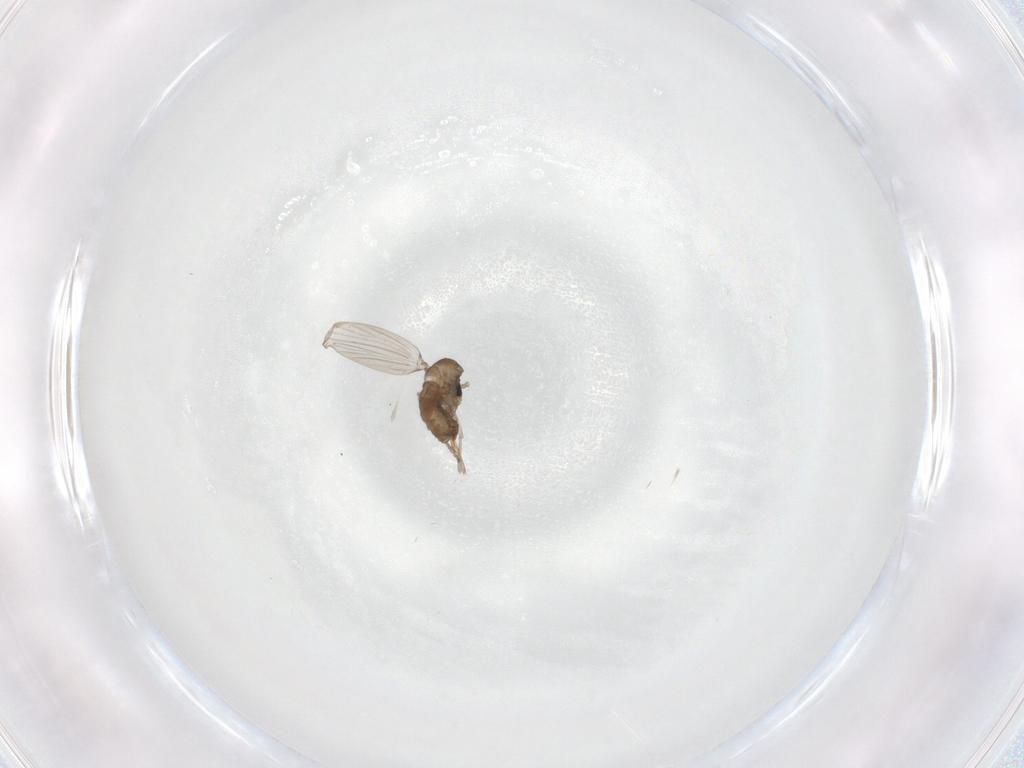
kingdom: Animalia
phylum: Arthropoda
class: Insecta
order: Diptera
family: Psychodidae
